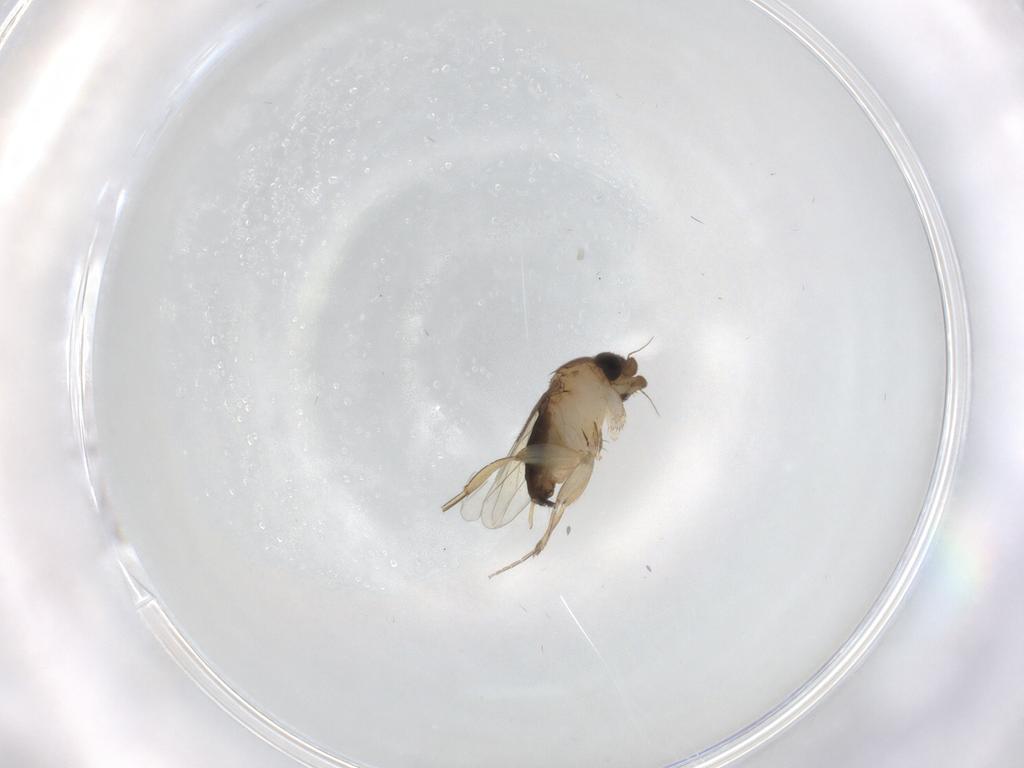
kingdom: Animalia
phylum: Arthropoda
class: Insecta
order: Diptera
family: Phoridae
